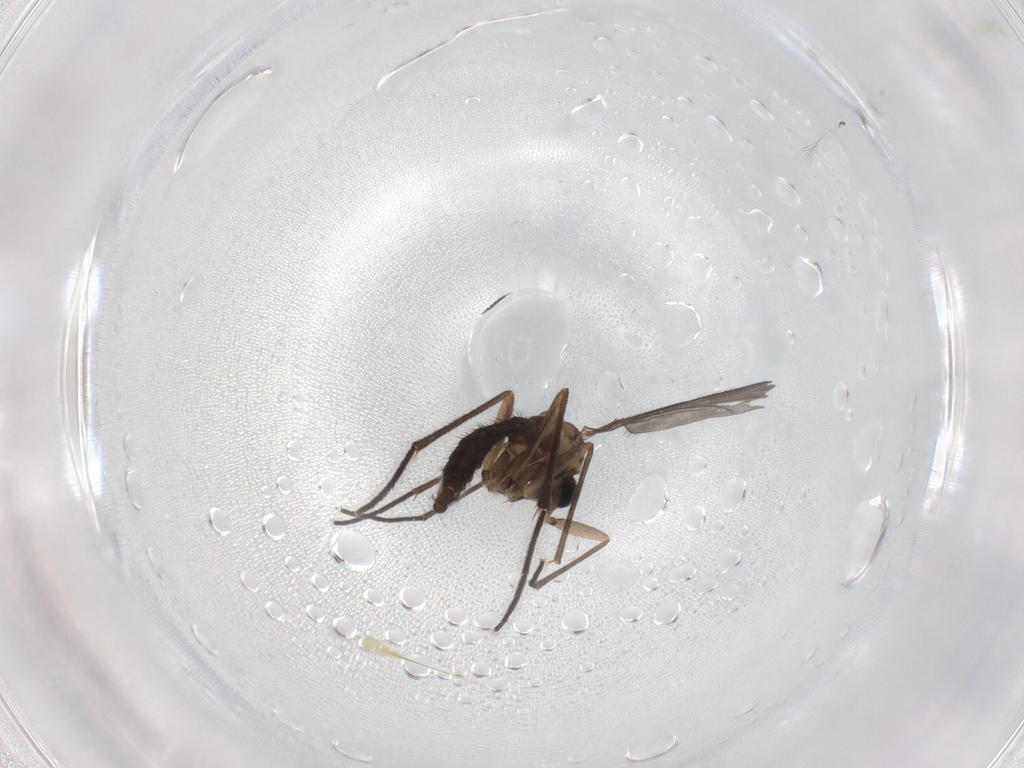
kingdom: Animalia
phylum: Arthropoda
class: Insecta
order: Diptera
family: Sciaridae
